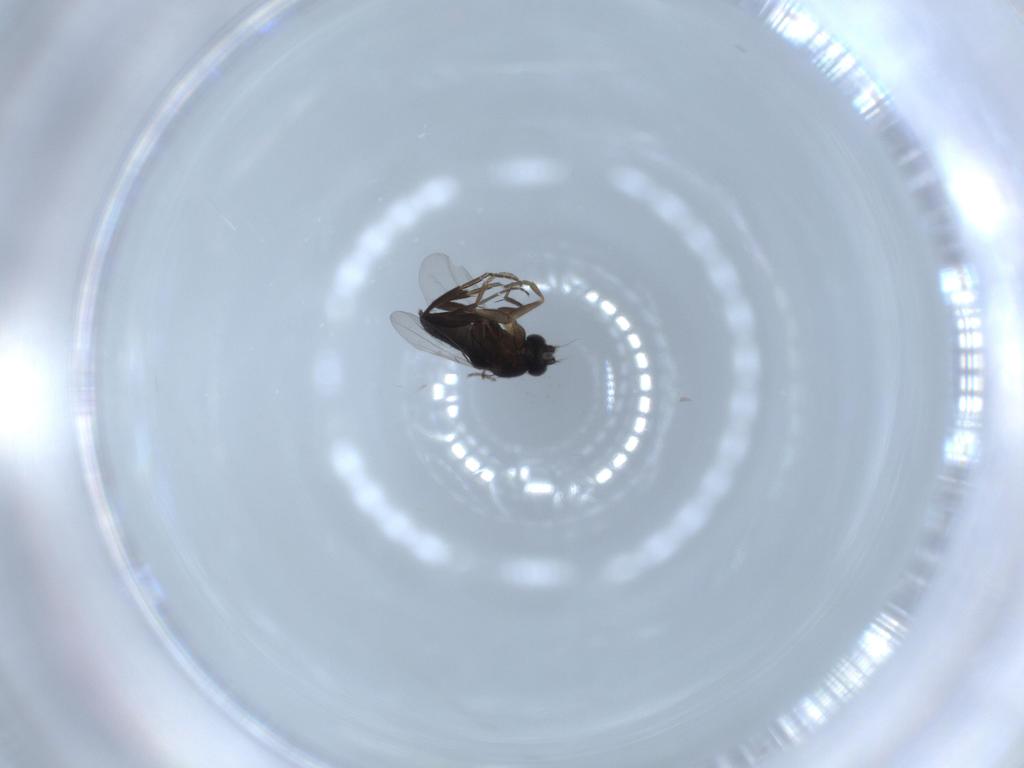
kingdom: Animalia
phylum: Arthropoda
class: Insecta
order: Diptera
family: Phoridae
